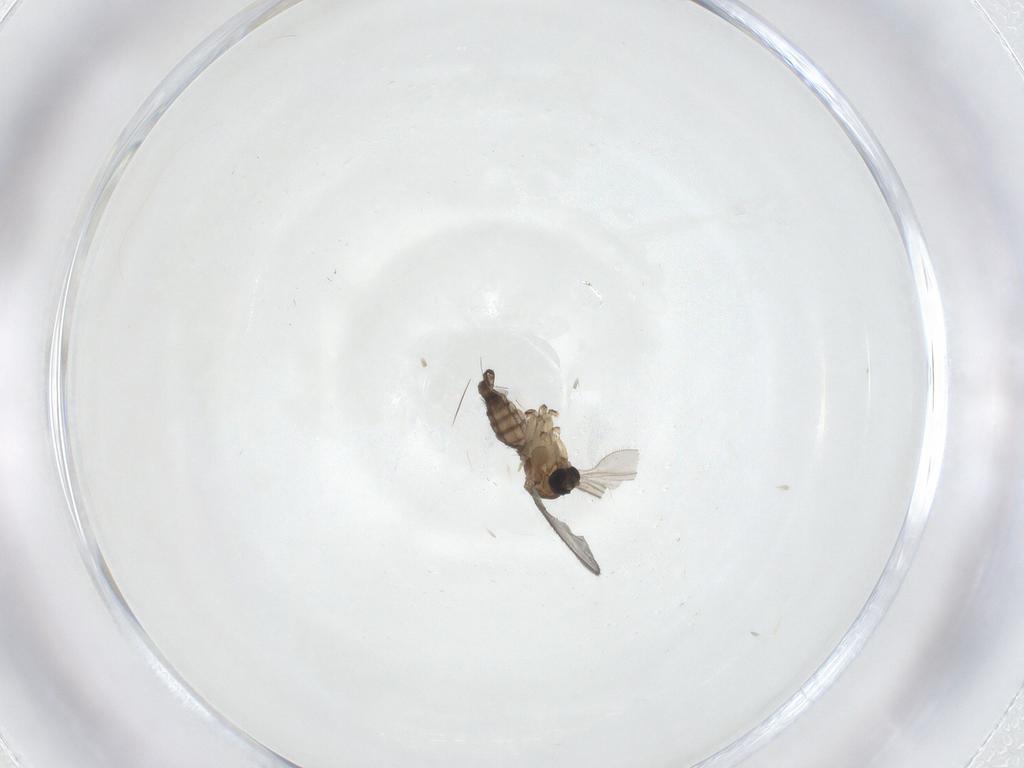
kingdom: Animalia
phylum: Arthropoda
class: Insecta
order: Diptera
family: Sciaridae
